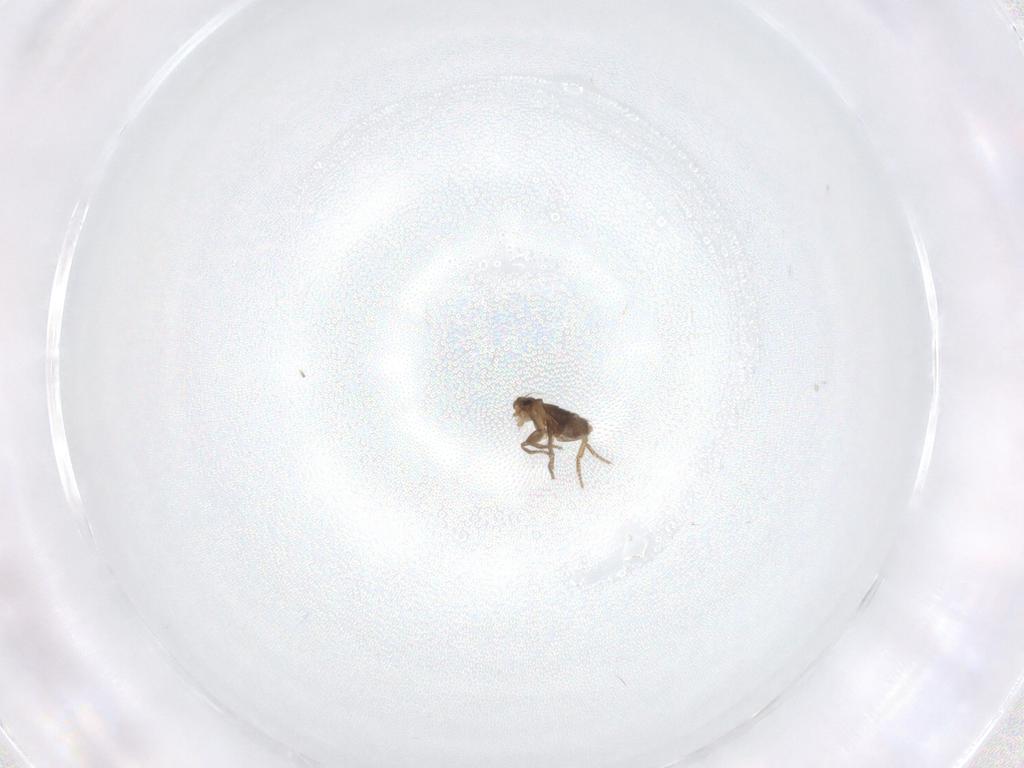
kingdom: Animalia
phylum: Arthropoda
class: Insecta
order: Diptera
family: Phoridae
